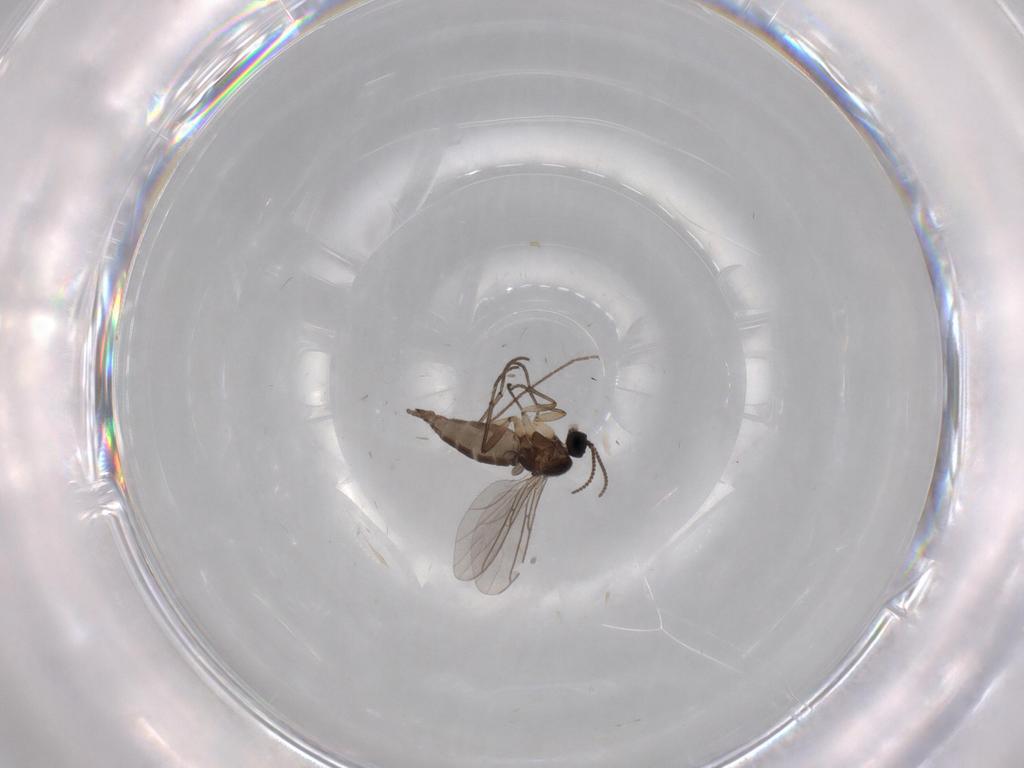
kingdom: Animalia
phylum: Arthropoda
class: Insecta
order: Diptera
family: Sciaridae
